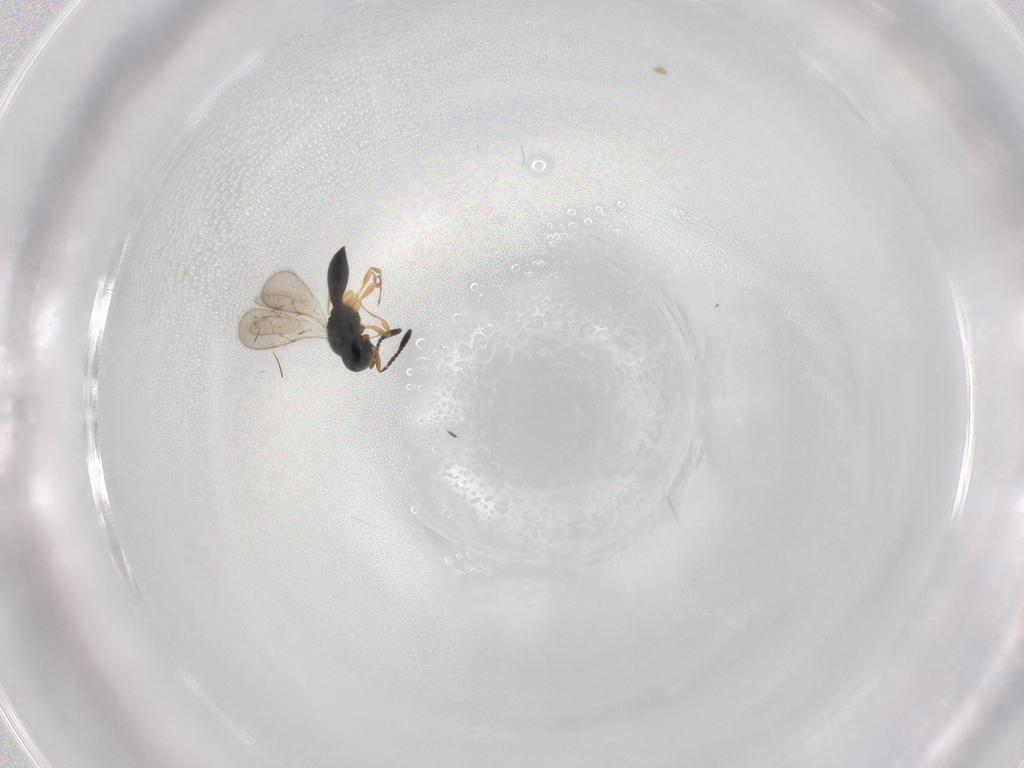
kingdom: Animalia
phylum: Arthropoda
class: Insecta
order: Hymenoptera
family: Scelionidae
